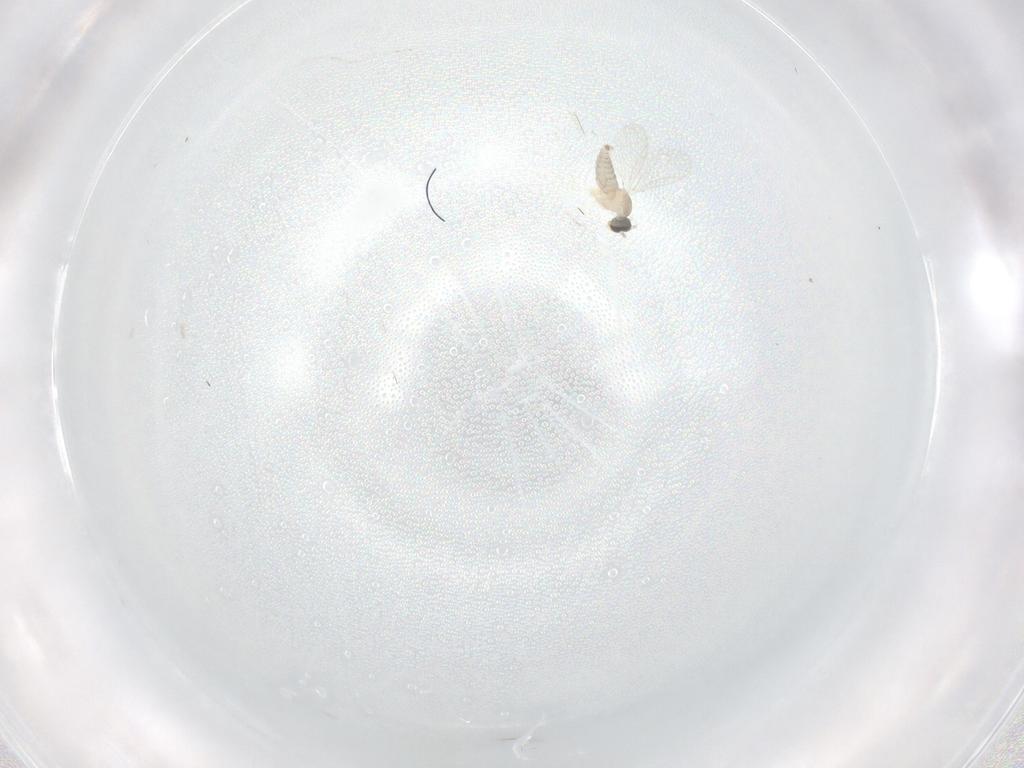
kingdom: Animalia
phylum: Arthropoda
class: Insecta
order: Diptera
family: Cecidomyiidae
